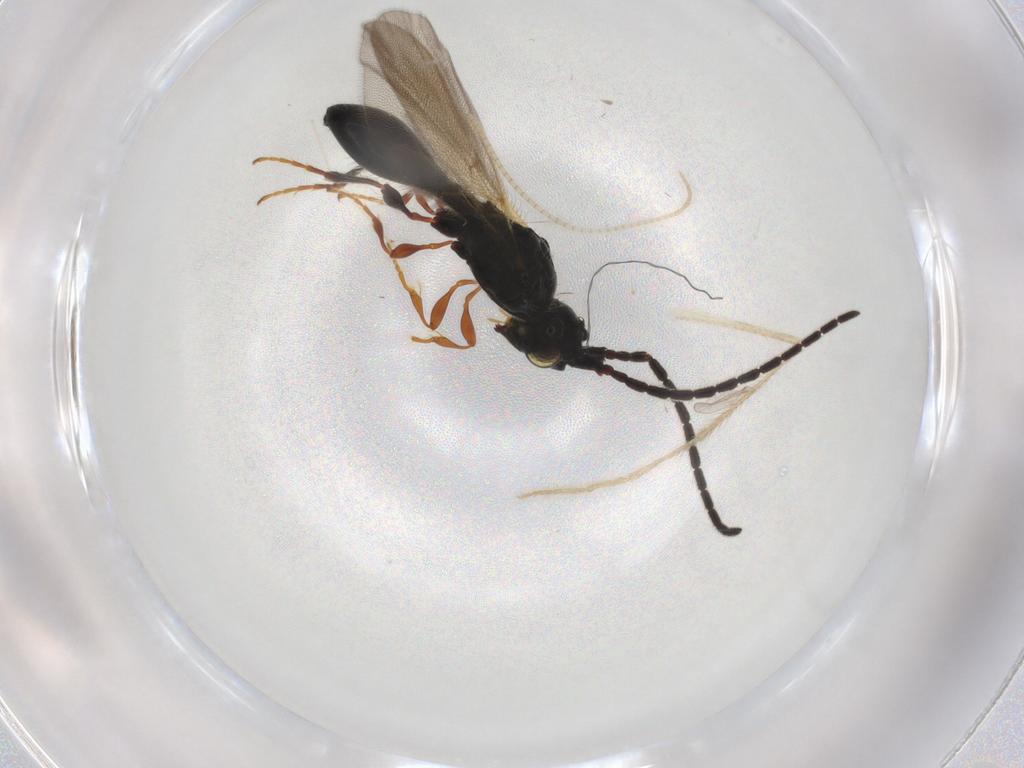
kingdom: Animalia
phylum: Arthropoda
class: Insecta
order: Hymenoptera
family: Diapriidae
